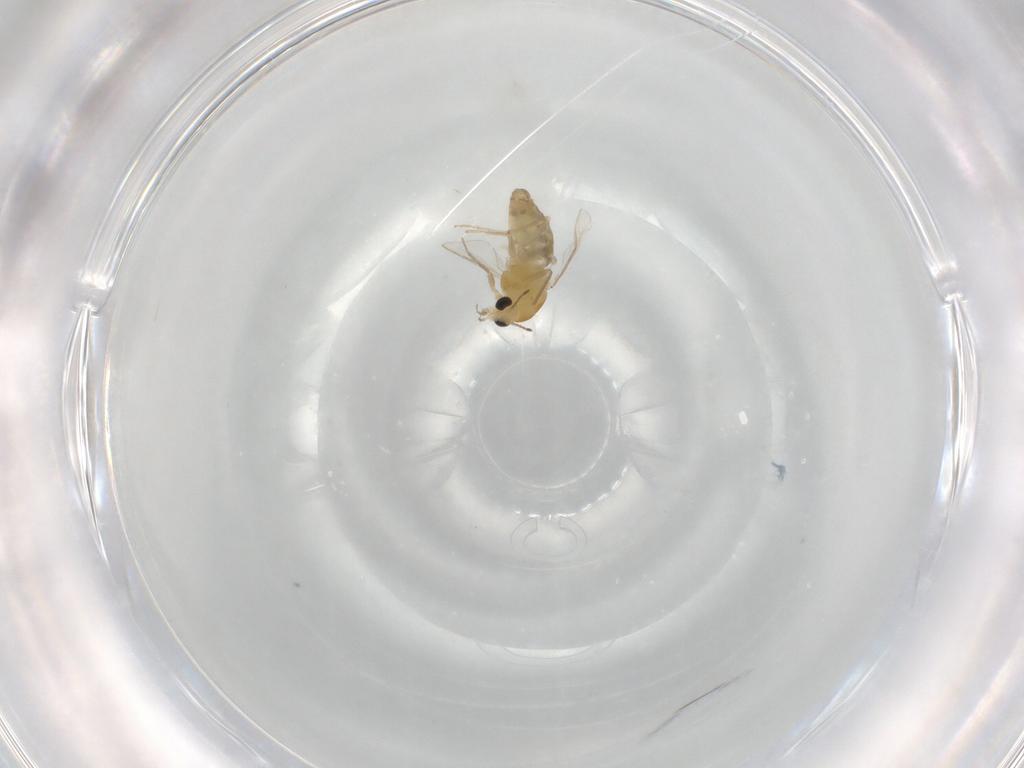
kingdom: Animalia
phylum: Arthropoda
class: Insecta
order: Diptera
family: Chironomidae
